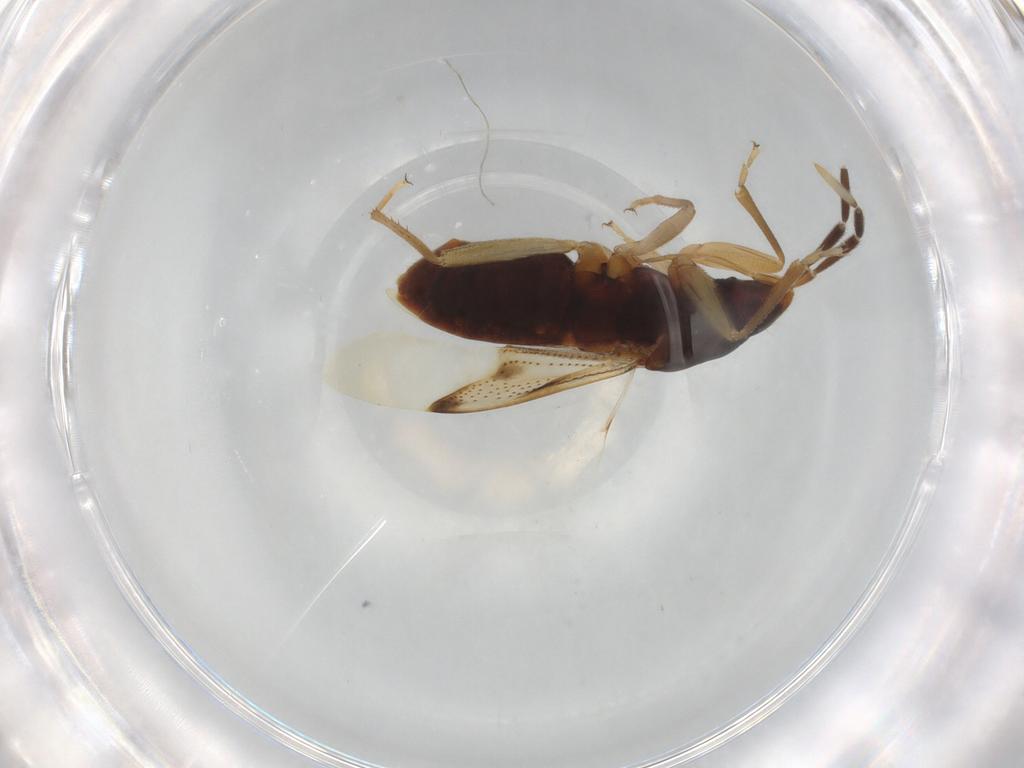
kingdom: Animalia
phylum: Arthropoda
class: Insecta
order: Hemiptera
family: Rhyparochromidae
